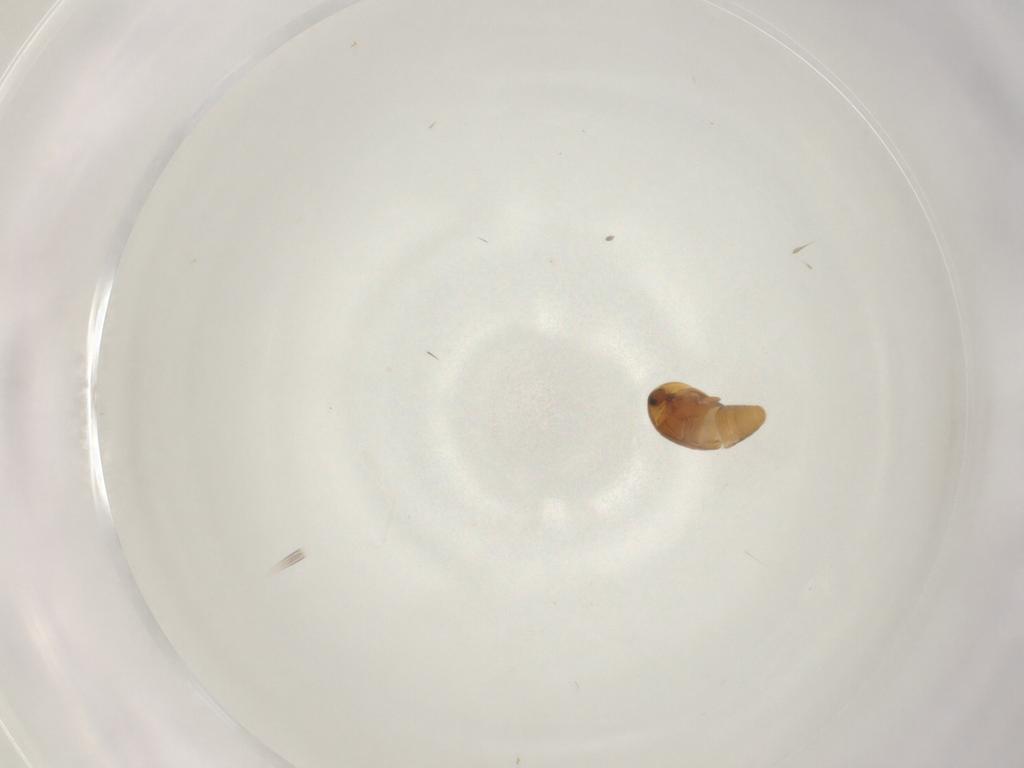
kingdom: Animalia
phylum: Arthropoda
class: Insecta
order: Coleoptera
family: Corylophidae
